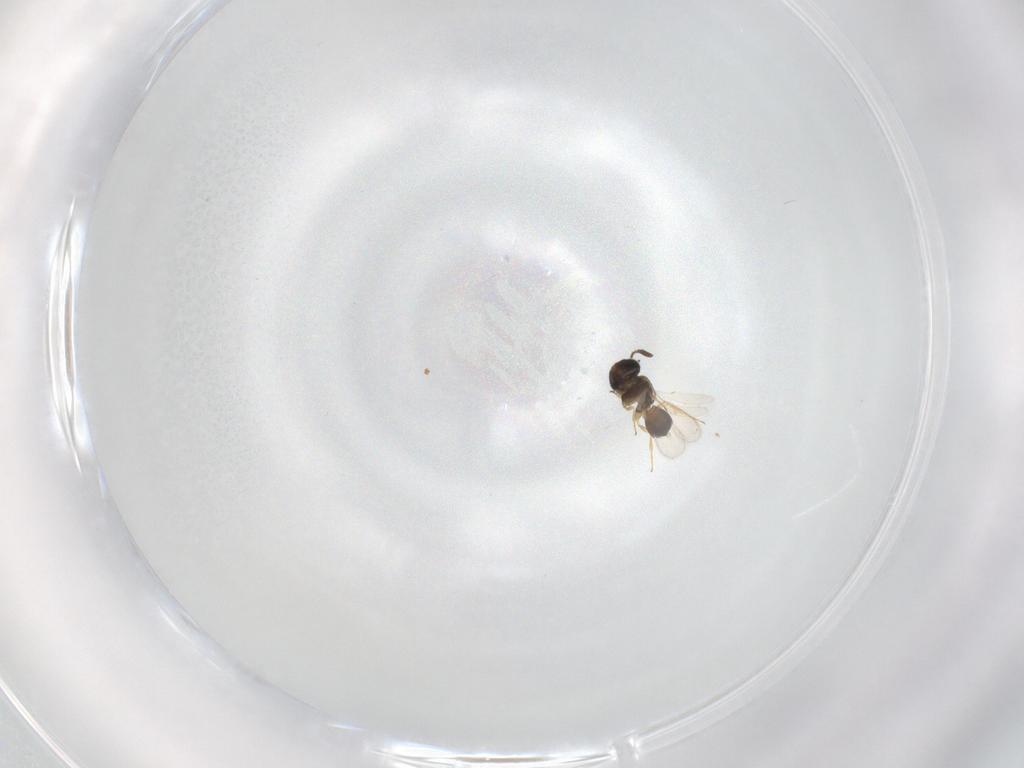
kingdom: Animalia
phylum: Arthropoda
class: Insecta
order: Hymenoptera
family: Scelionidae
